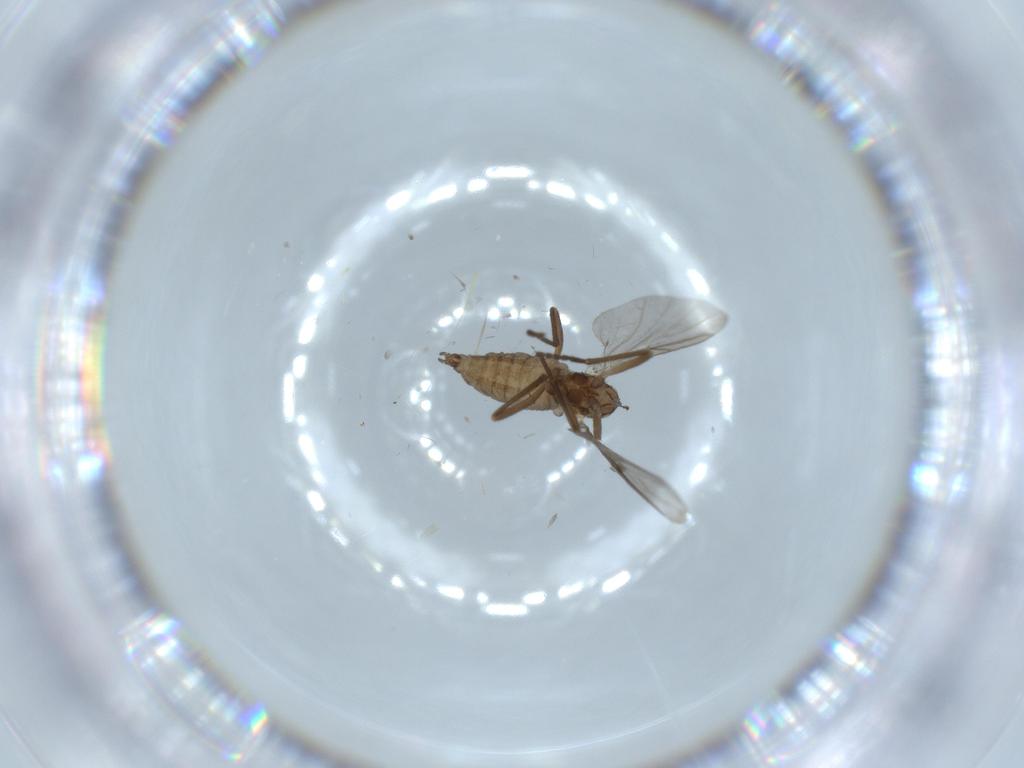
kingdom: Animalia
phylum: Arthropoda
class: Insecta
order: Diptera
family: Cecidomyiidae
